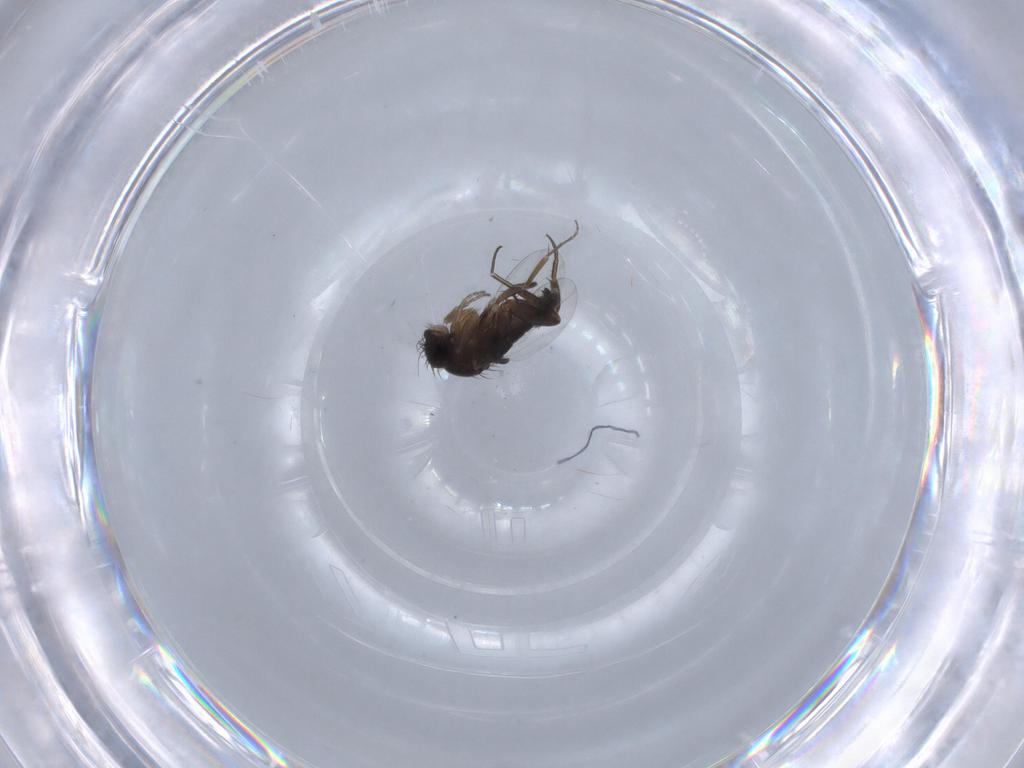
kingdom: Animalia
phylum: Arthropoda
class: Insecta
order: Diptera
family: Phoridae
